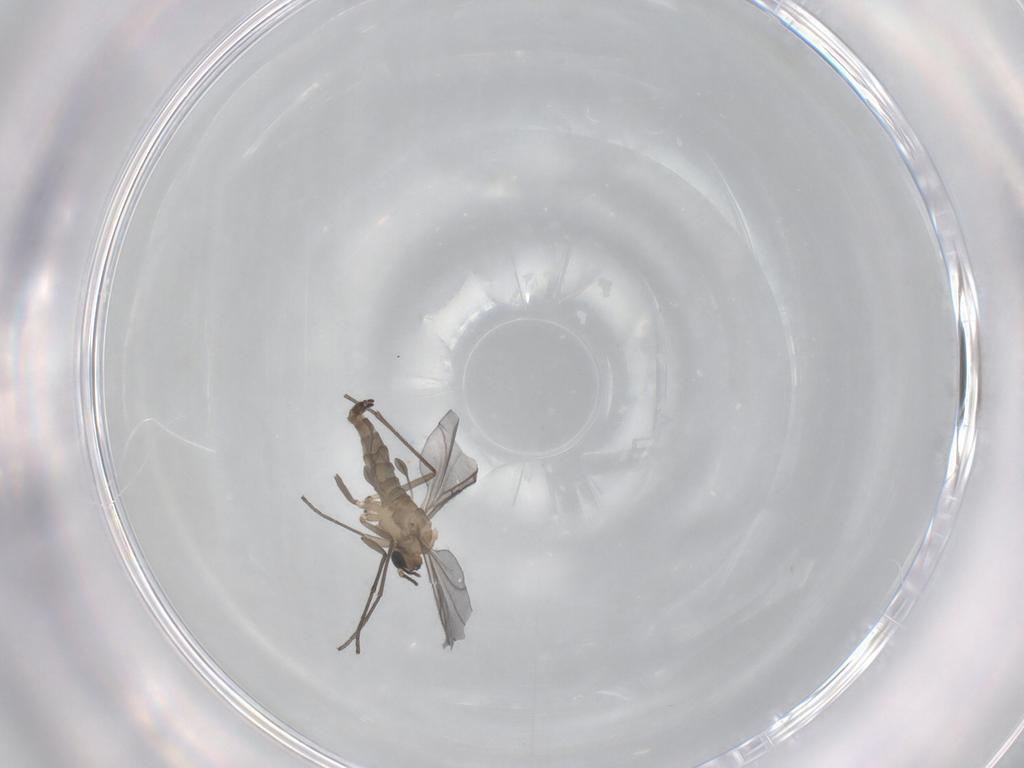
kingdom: Animalia
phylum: Arthropoda
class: Insecta
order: Diptera
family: Sciaridae
